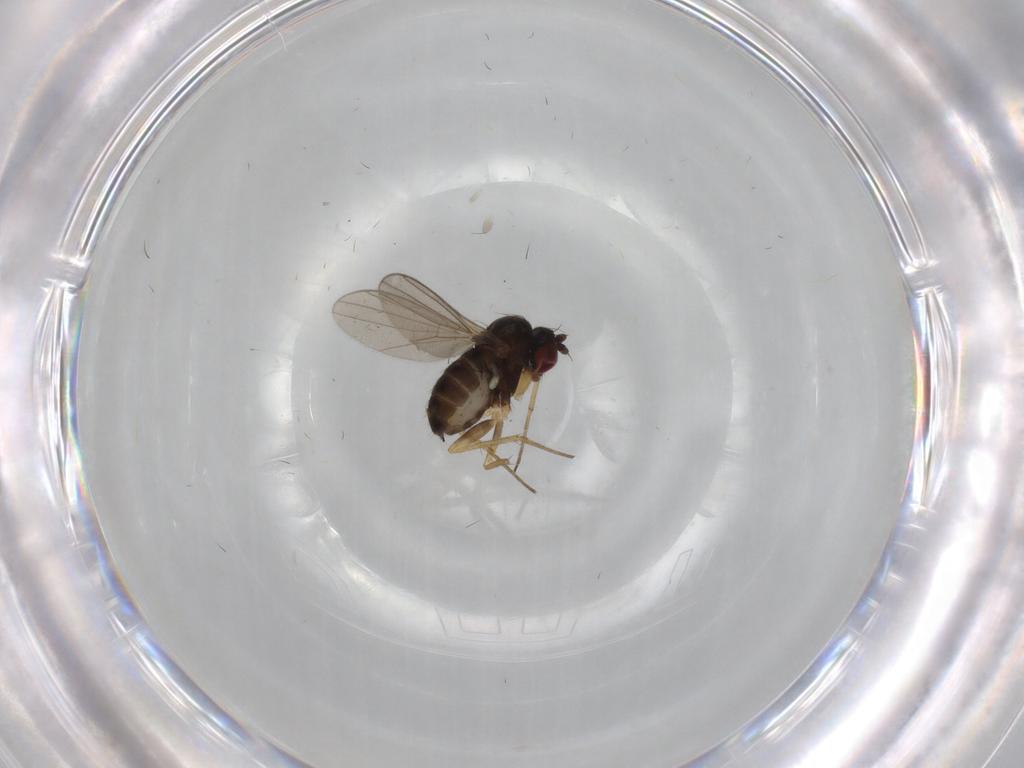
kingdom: Animalia
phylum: Arthropoda
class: Insecta
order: Diptera
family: Dolichopodidae
